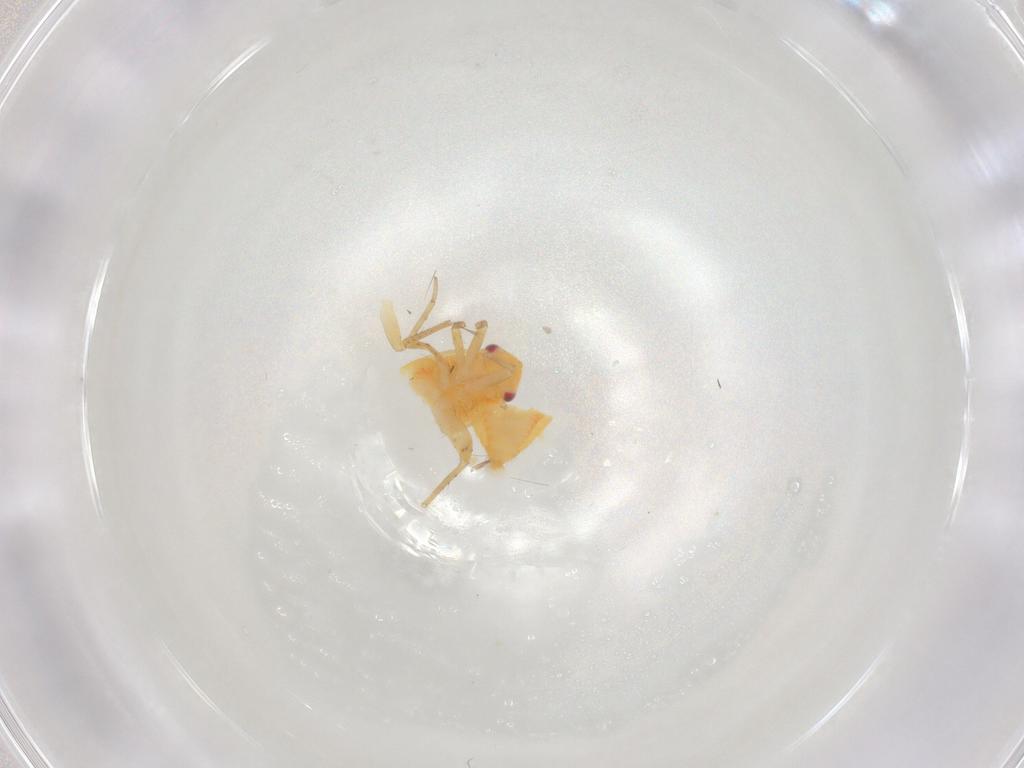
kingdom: Animalia
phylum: Arthropoda
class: Insecta
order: Hemiptera
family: Miridae
